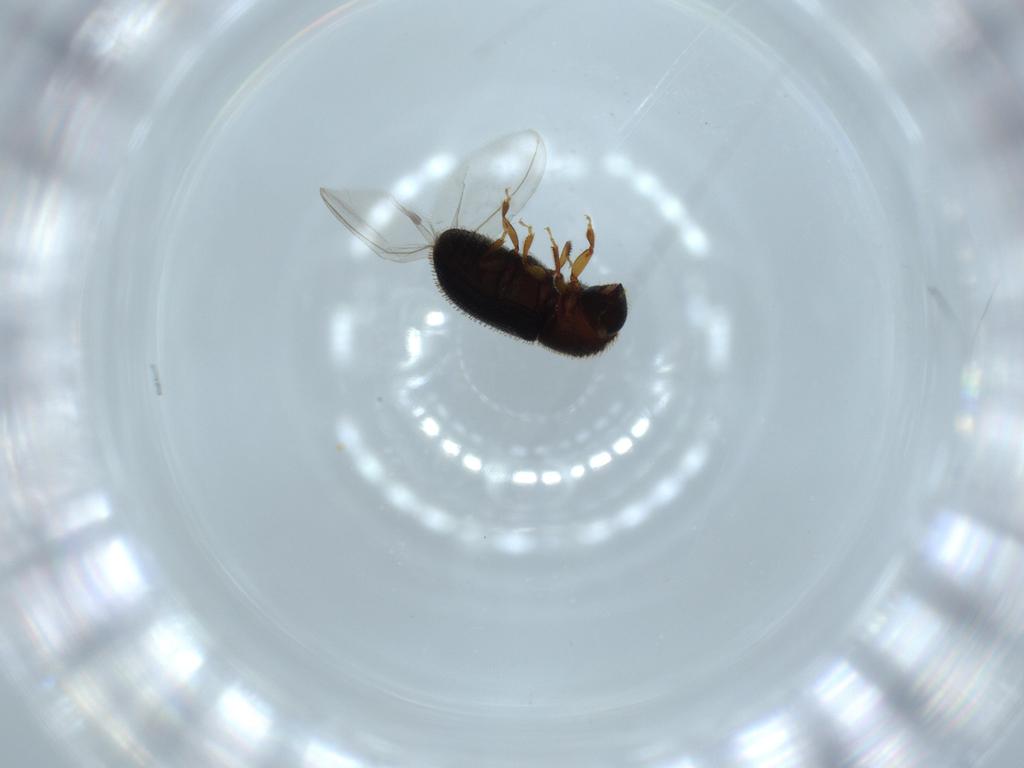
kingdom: Animalia
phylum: Arthropoda
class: Insecta
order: Coleoptera
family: Curculionidae
